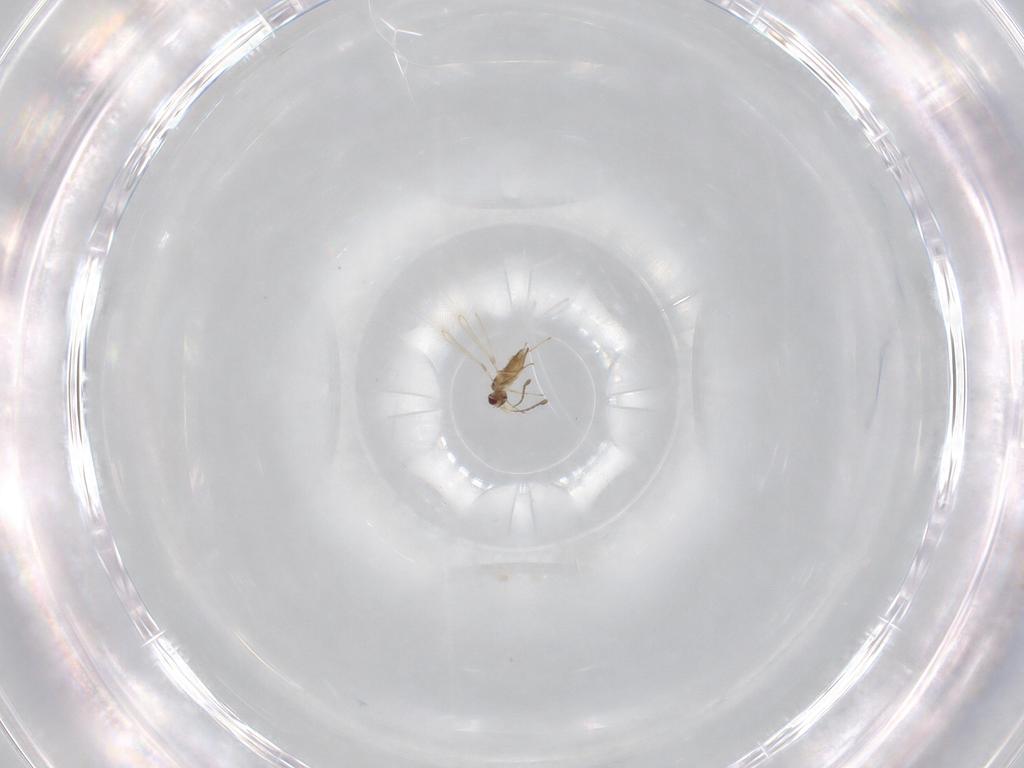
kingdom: Animalia
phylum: Arthropoda
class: Insecta
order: Hymenoptera
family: Mymaridae
